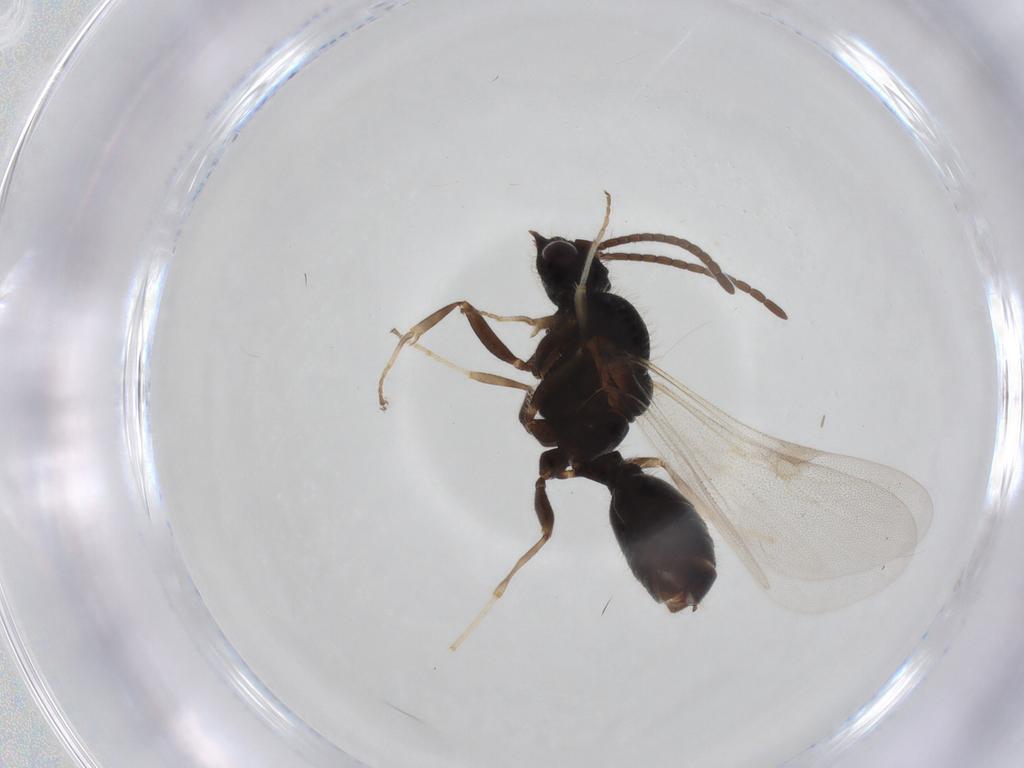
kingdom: Animalia
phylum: Arthropoda
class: Insecta
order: Hymenoptera
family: Formicidae
